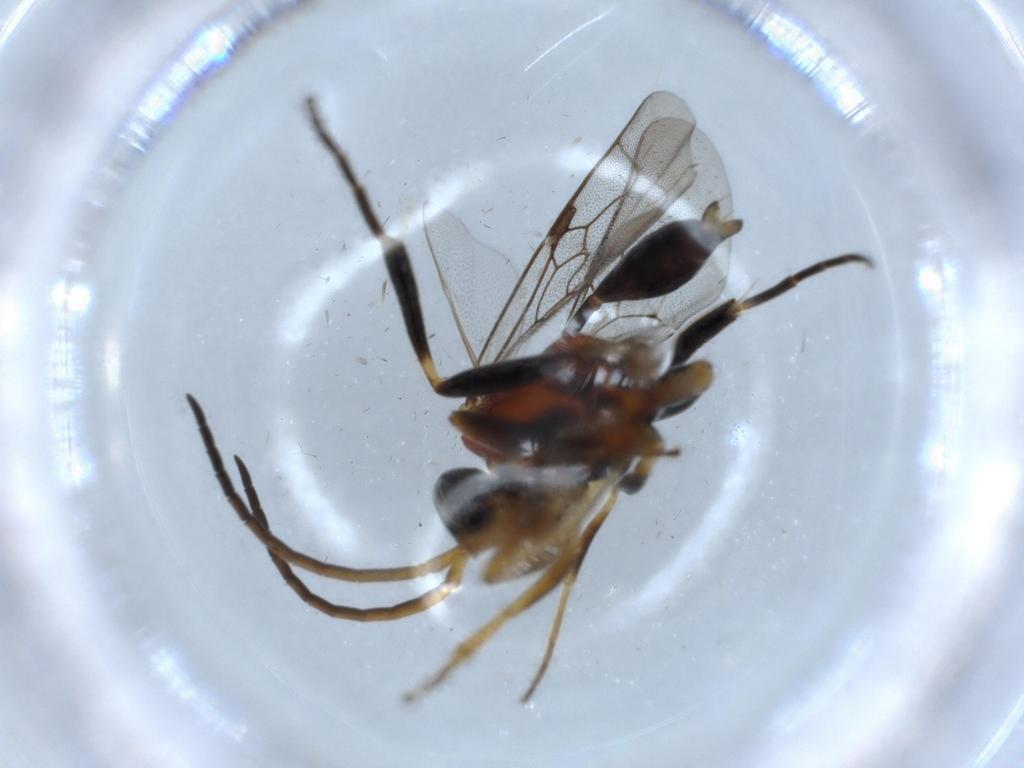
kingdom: Animalia
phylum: Arthropoda
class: Insecta
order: Hymenoptera
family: Evaniidae
